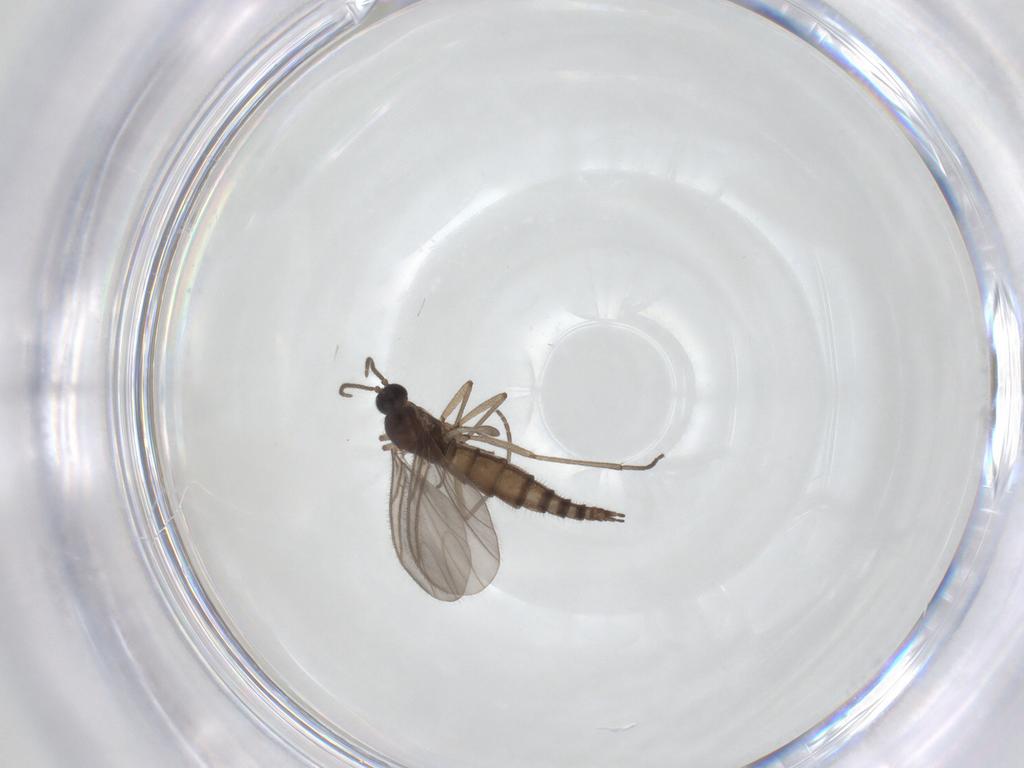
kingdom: Animalia
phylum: Arthropoda
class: Insecta
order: Diptera
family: Sciaridae
